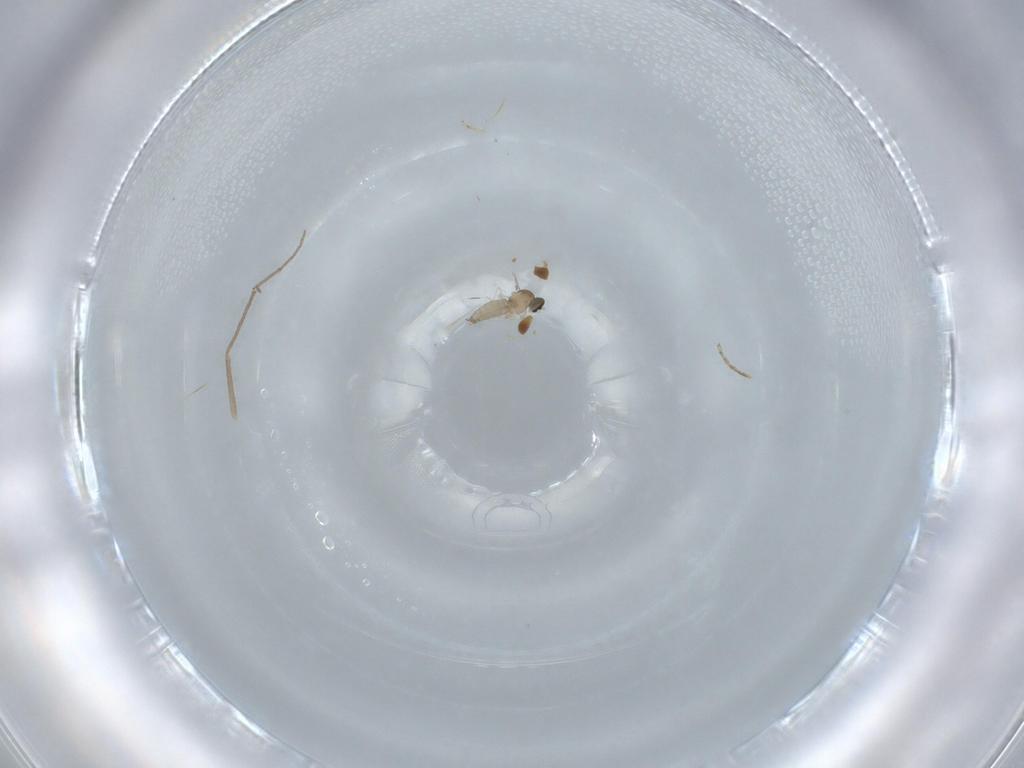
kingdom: Animalia
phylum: Arthropoda
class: Insecta
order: Diptera
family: Cecidomyiidae
